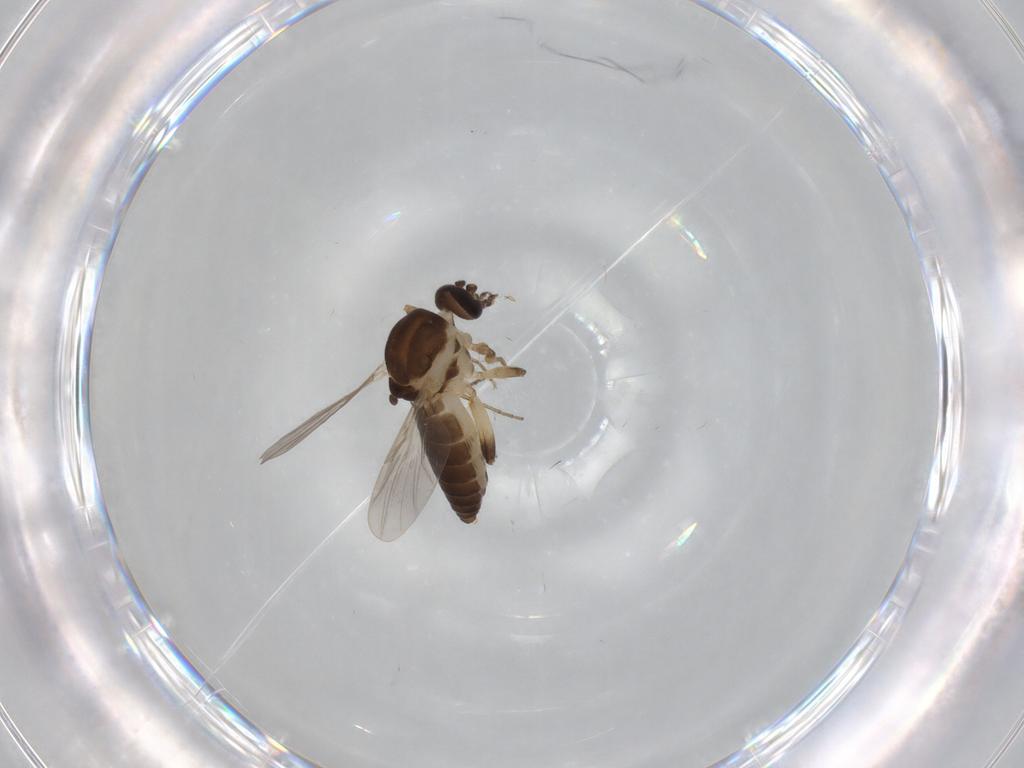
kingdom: Animalia
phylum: Arthropoda
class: Insecta
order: Diptera
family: Ceratopogonidae
